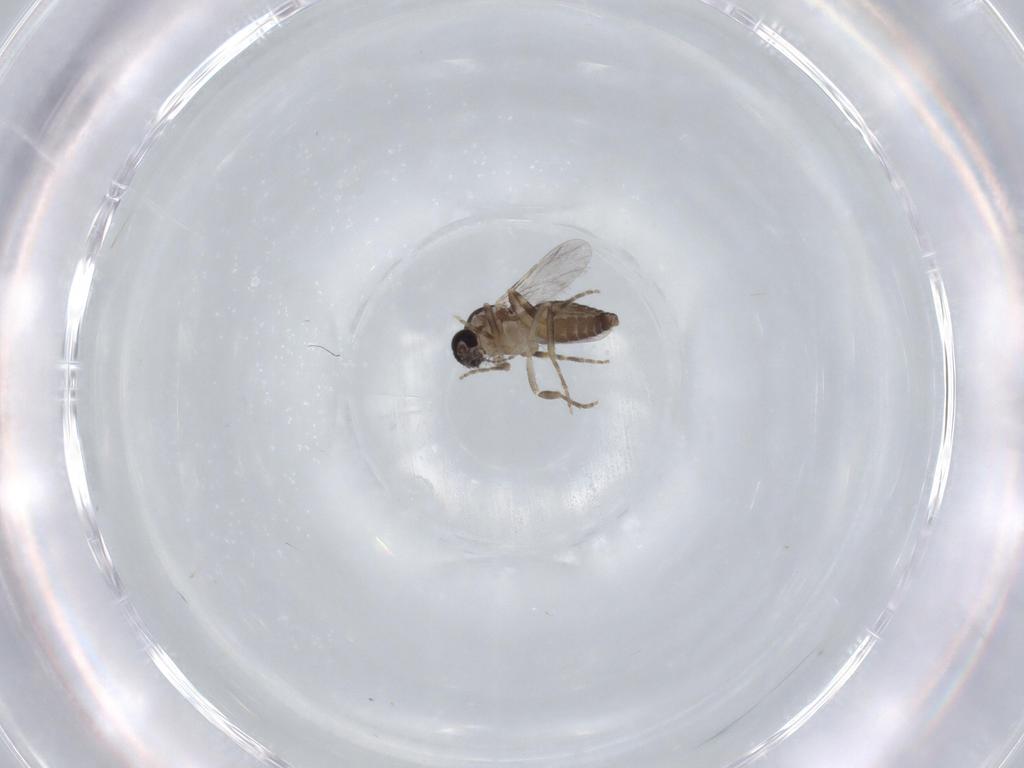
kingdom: Animalia
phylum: Arthropoda
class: Insecta
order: Diptera
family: Ceratopogonidae
